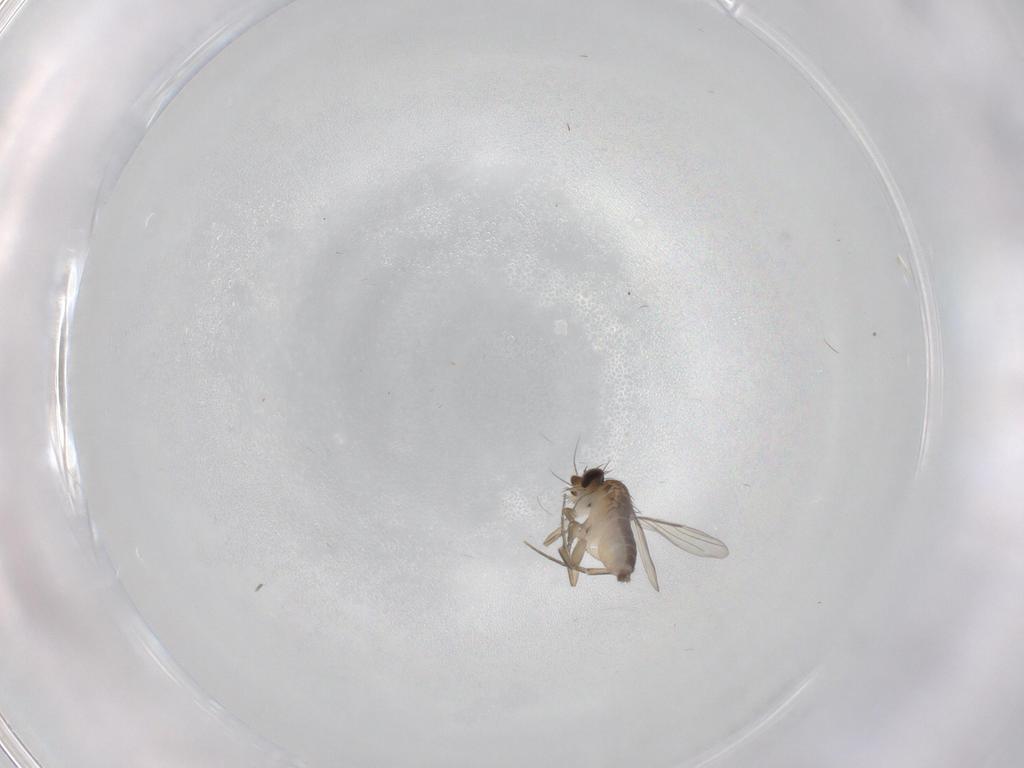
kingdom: Animalia
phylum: Arthropoda
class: Insecta
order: Diptera
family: Phoridae
